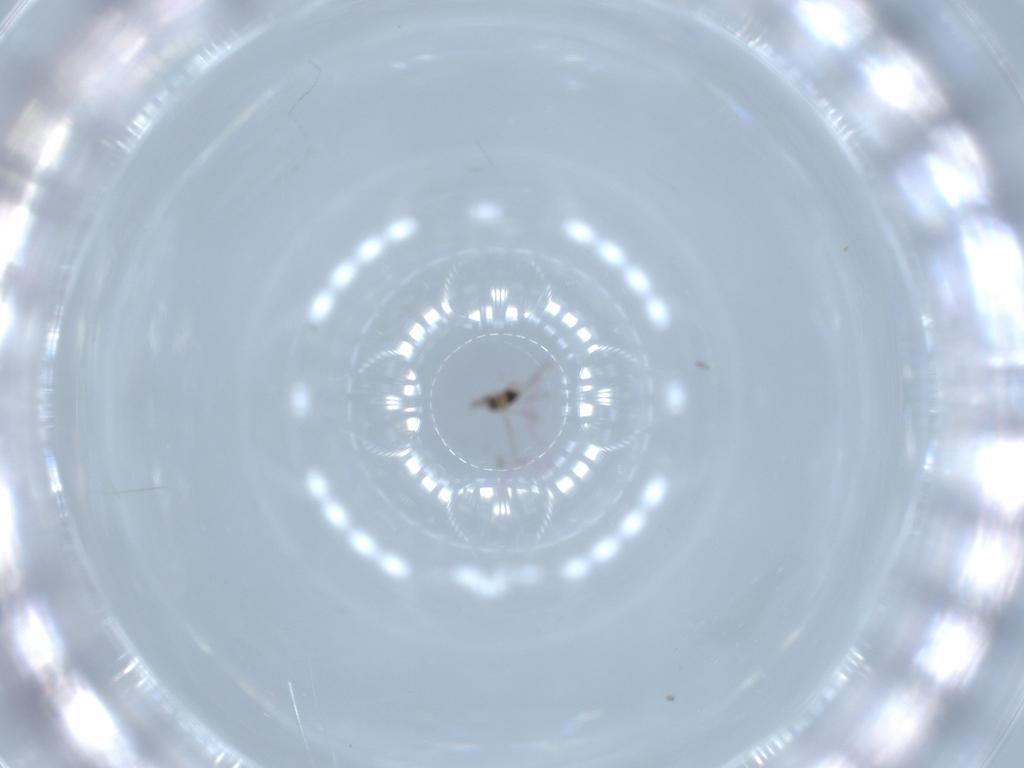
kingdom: Animalia
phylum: Arthropoda
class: Insecta
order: Hymenoptera
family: Mymaridae
